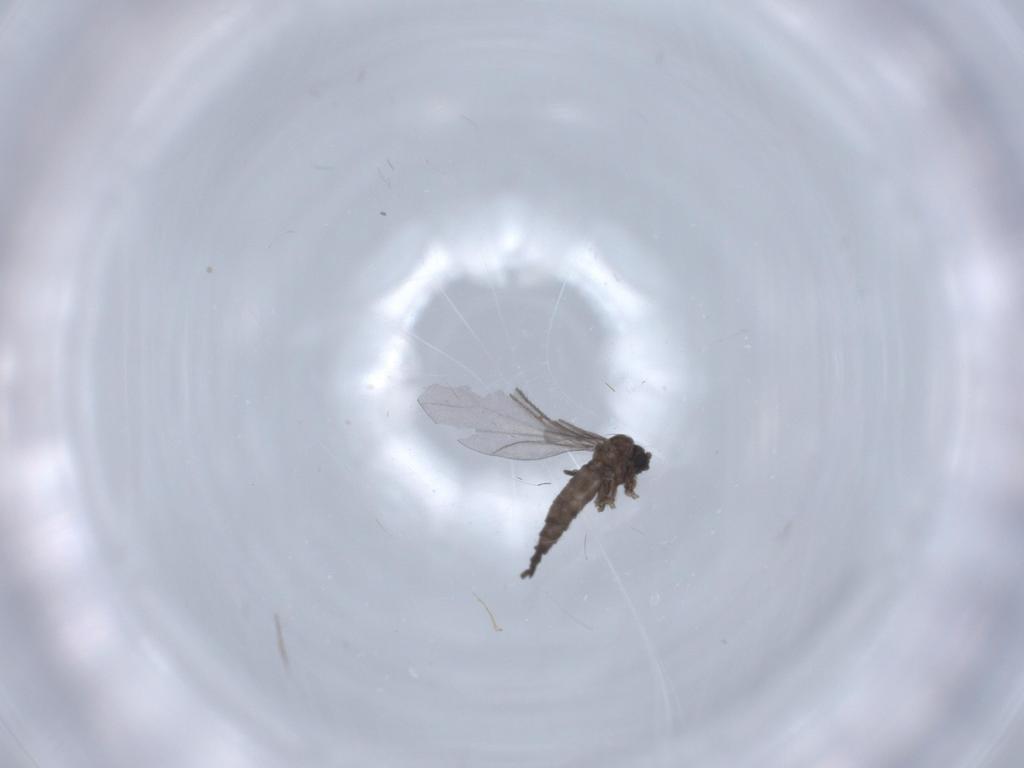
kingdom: Animalia
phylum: Arthropoda
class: Insecta
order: Diptera
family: Sciaridae
